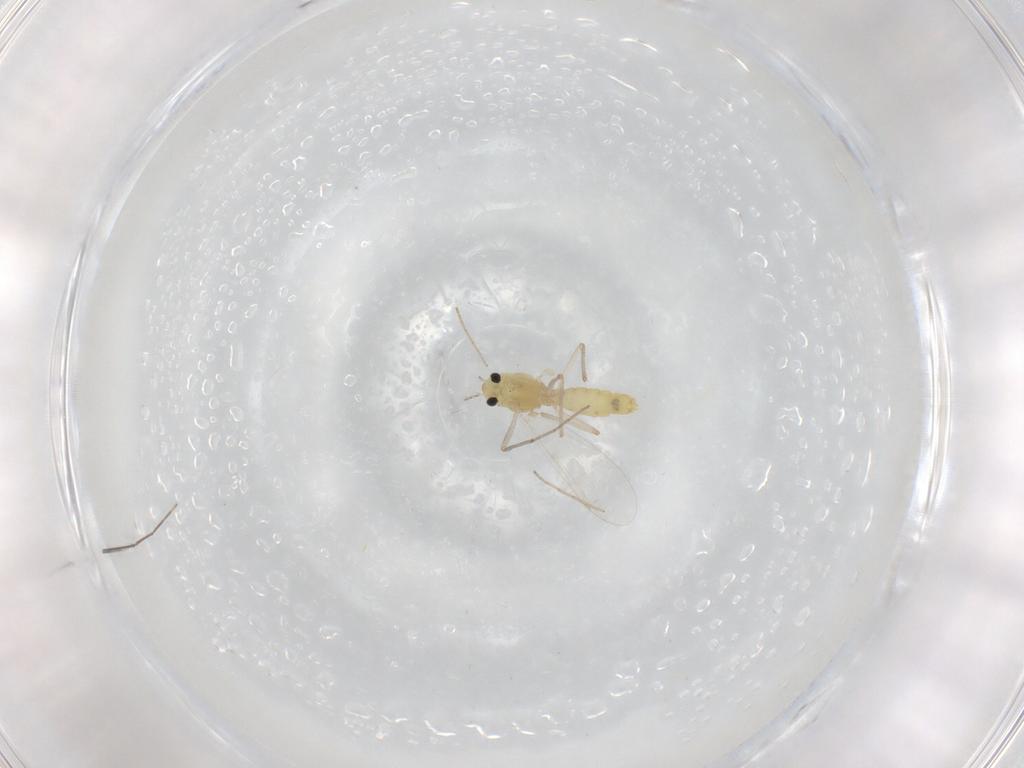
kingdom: Animalia
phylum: Arthropoda
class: Insecta
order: Diptera
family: Chironomidae
